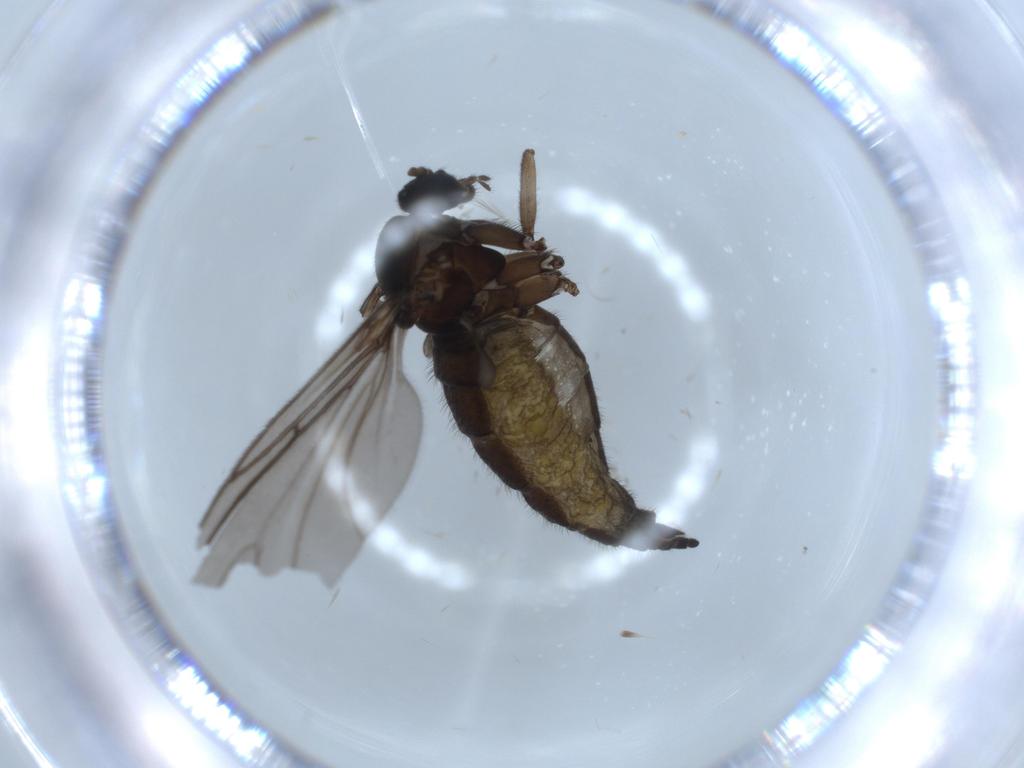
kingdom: Animalia
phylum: Arthropoda
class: Insecta
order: Diptera
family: Sciaridae
